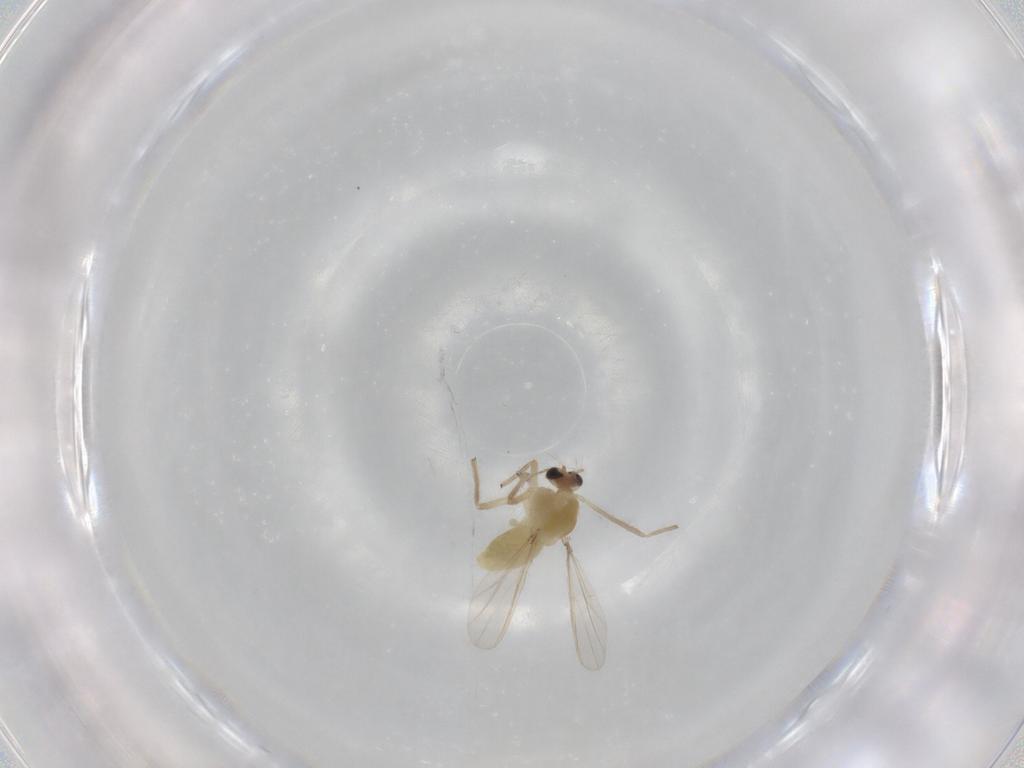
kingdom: Animalia
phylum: Arthropoda
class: Insecta
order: Diptera
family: Chironomidae
